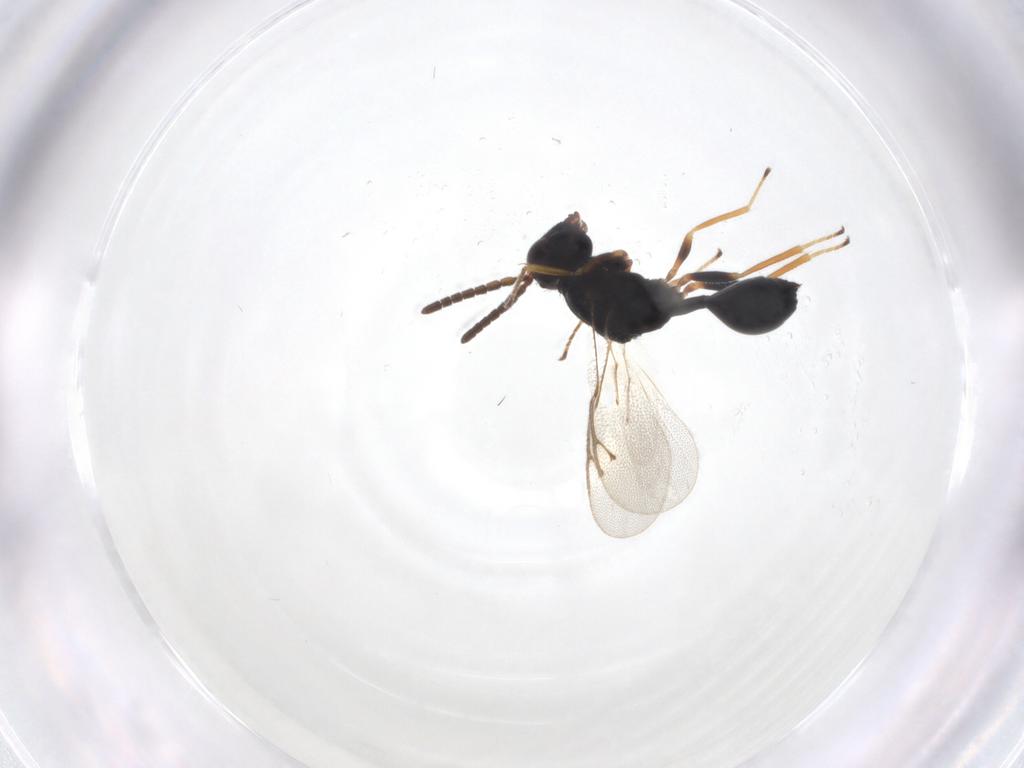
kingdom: Animalia
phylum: Arthropoda
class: Insecta
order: Hymenoptera
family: Pteromalidae
